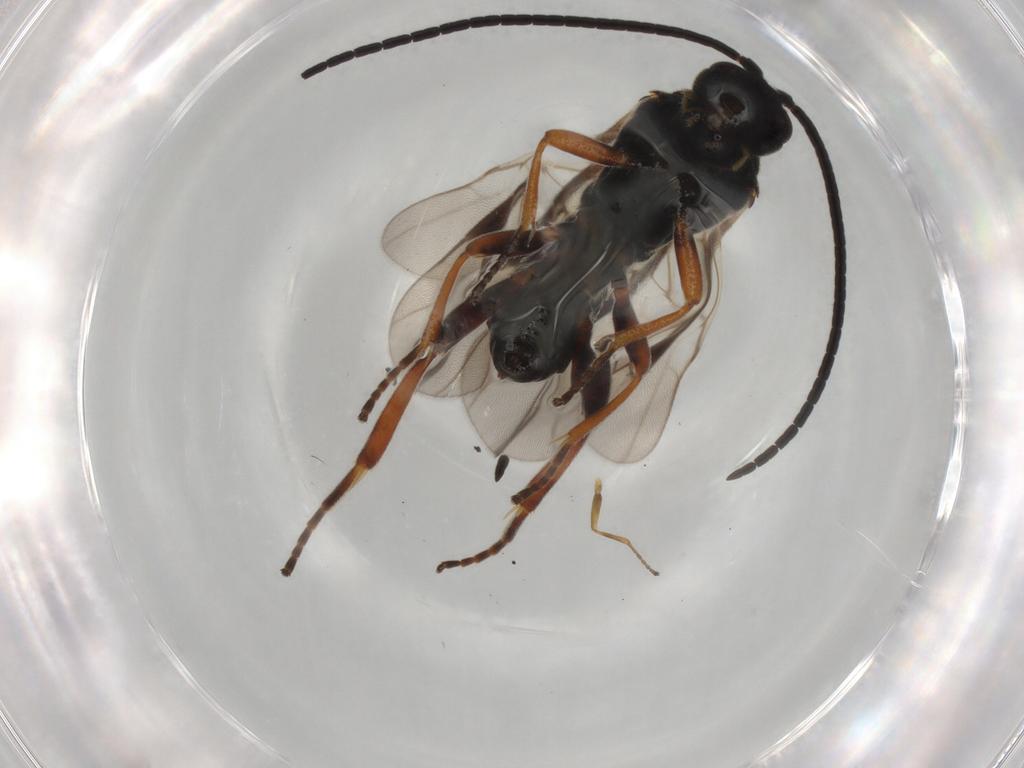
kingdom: Animalia
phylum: Arthropoda
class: Insecta
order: Hymenoptera
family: Braconidae
